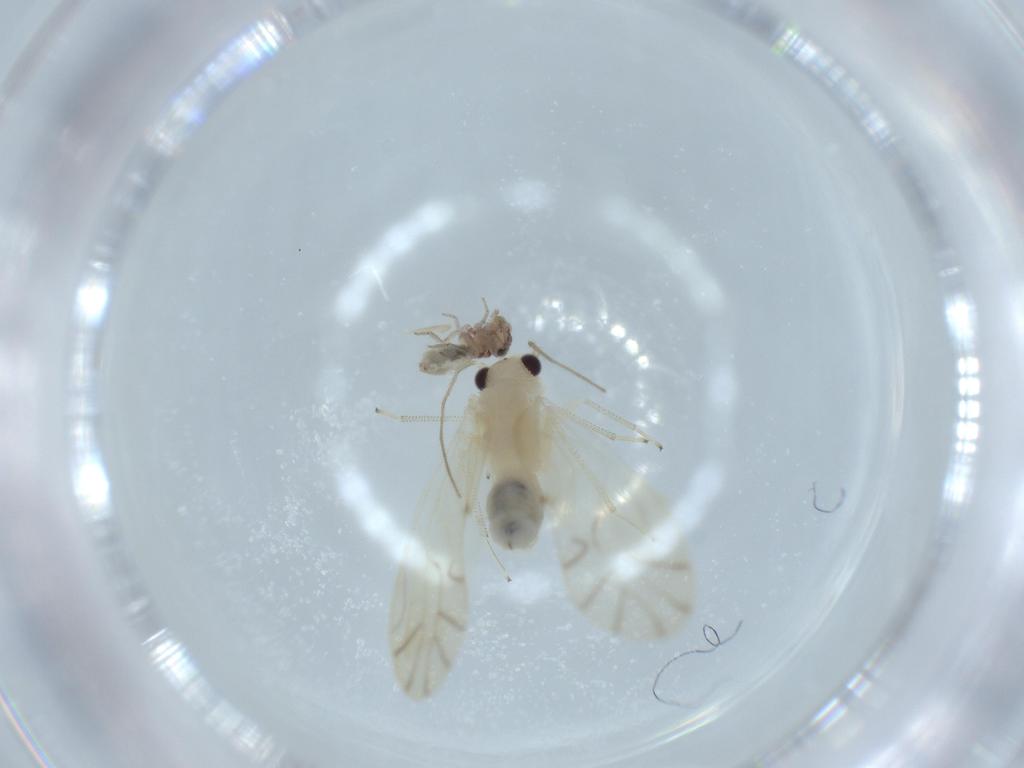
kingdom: Animalia
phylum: Arthropoda
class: Insecta
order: Psocodea
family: Caeciliusidae
